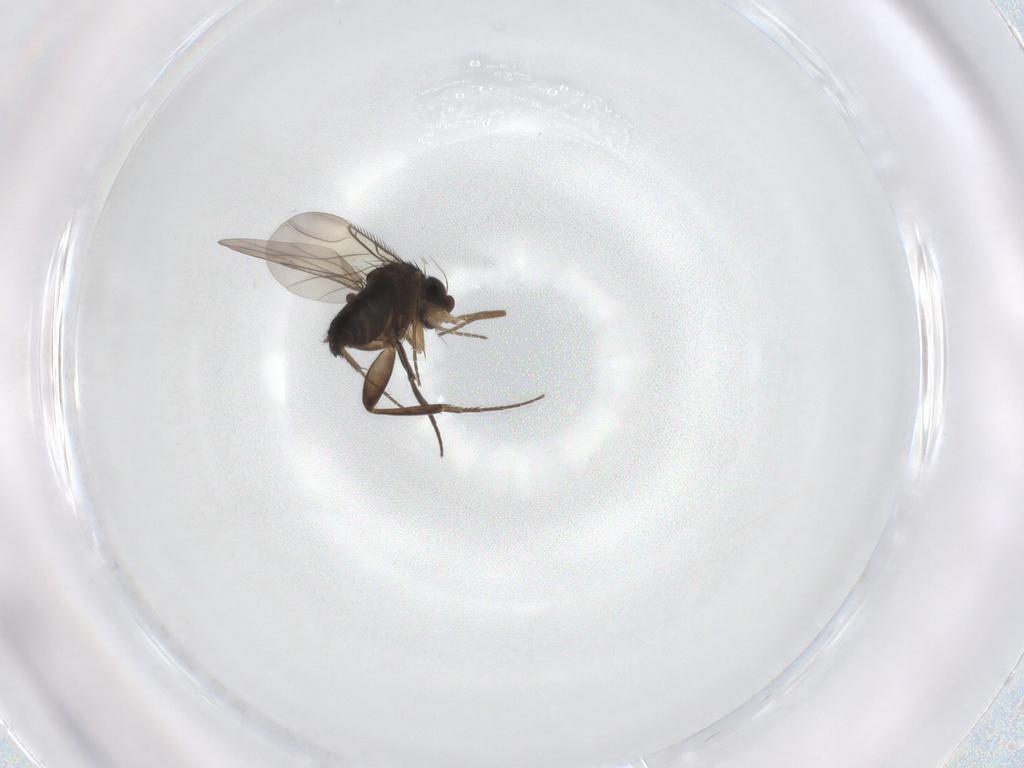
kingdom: Animalia
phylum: Arthropoda
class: Insecta
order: Diptera
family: Phoridae
